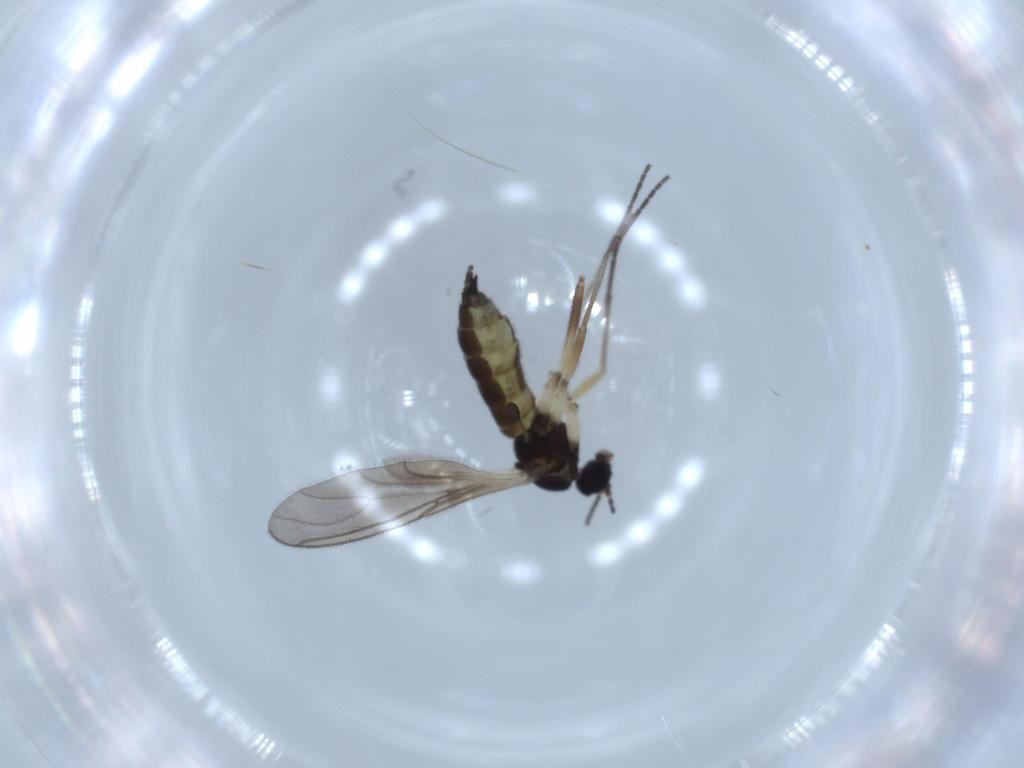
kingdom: Animalia
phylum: Arthropoda
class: Insecta
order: Diptera
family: Sciaridae
